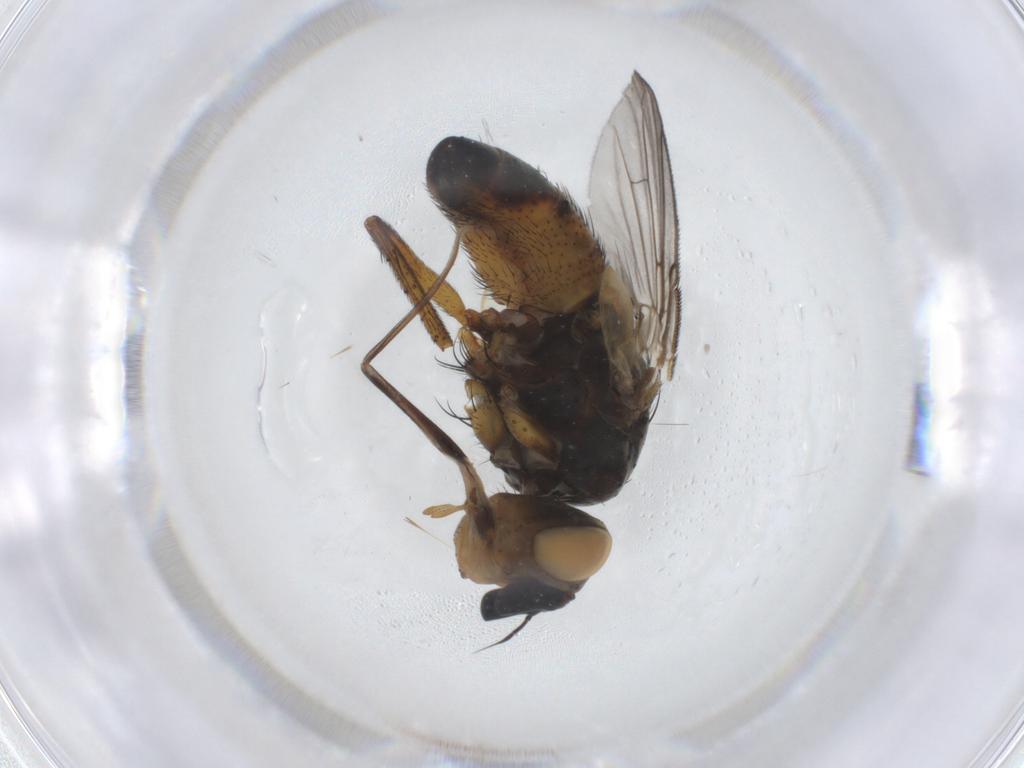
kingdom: Animalia
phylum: Arthropoda
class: Insecta
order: Diptera
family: Tachinidae
